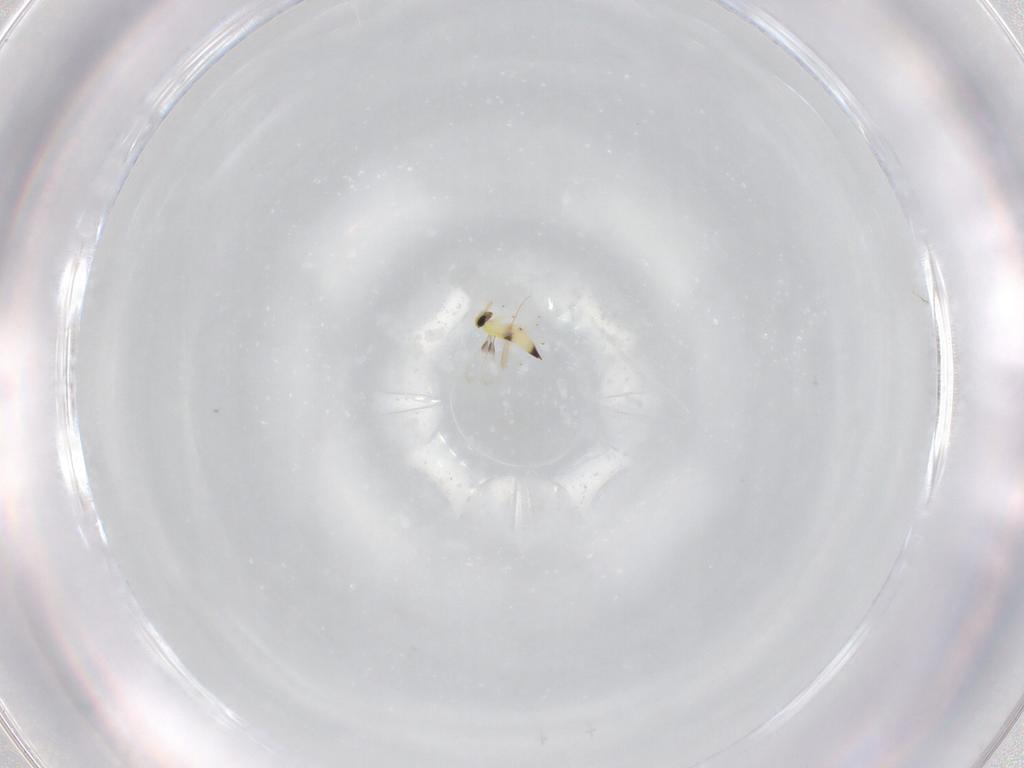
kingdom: Animalia
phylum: Arthropoda
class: Insecta
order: Hymenoptera
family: Trichogrammatidae
